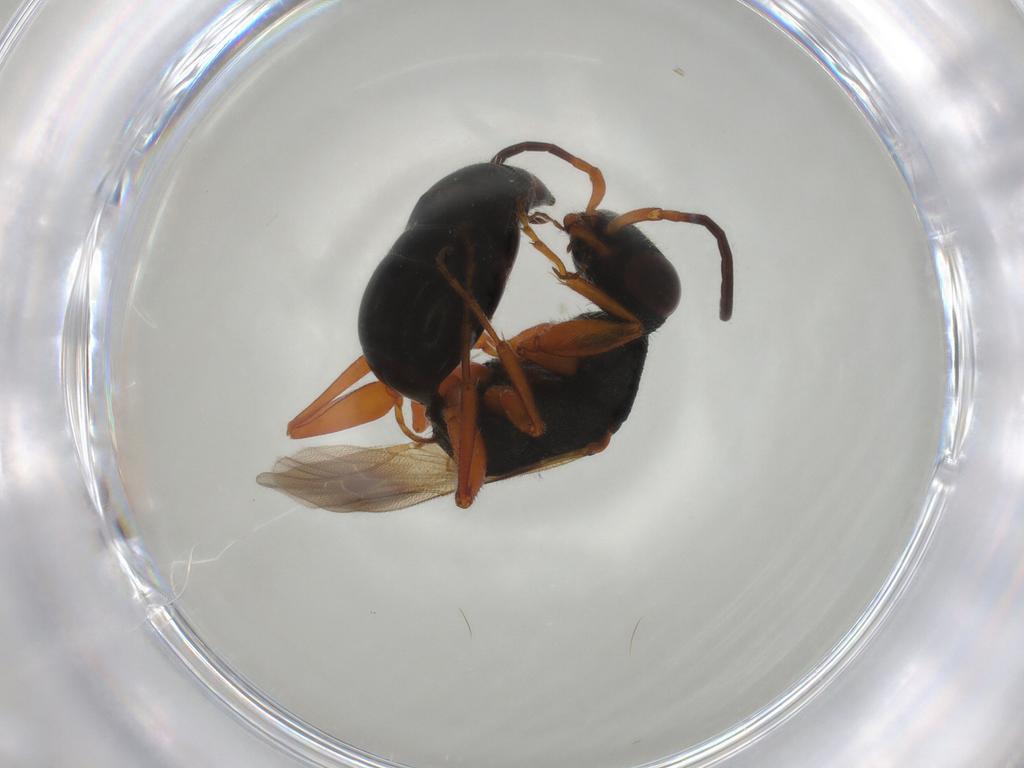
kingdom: Animalia
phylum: Arthropoda
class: Insecta
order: Hymenoptera
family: Bethylidae
